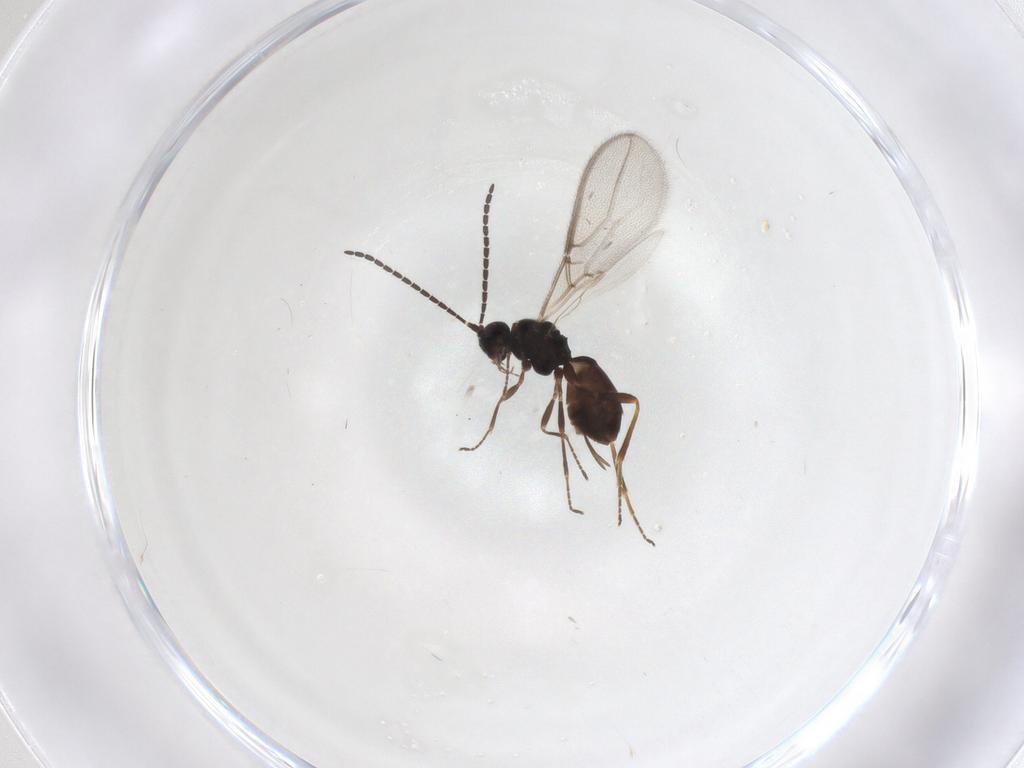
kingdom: Animalia
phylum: Arthropoda
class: Insecta
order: Hymenoptera
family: Braconidae
